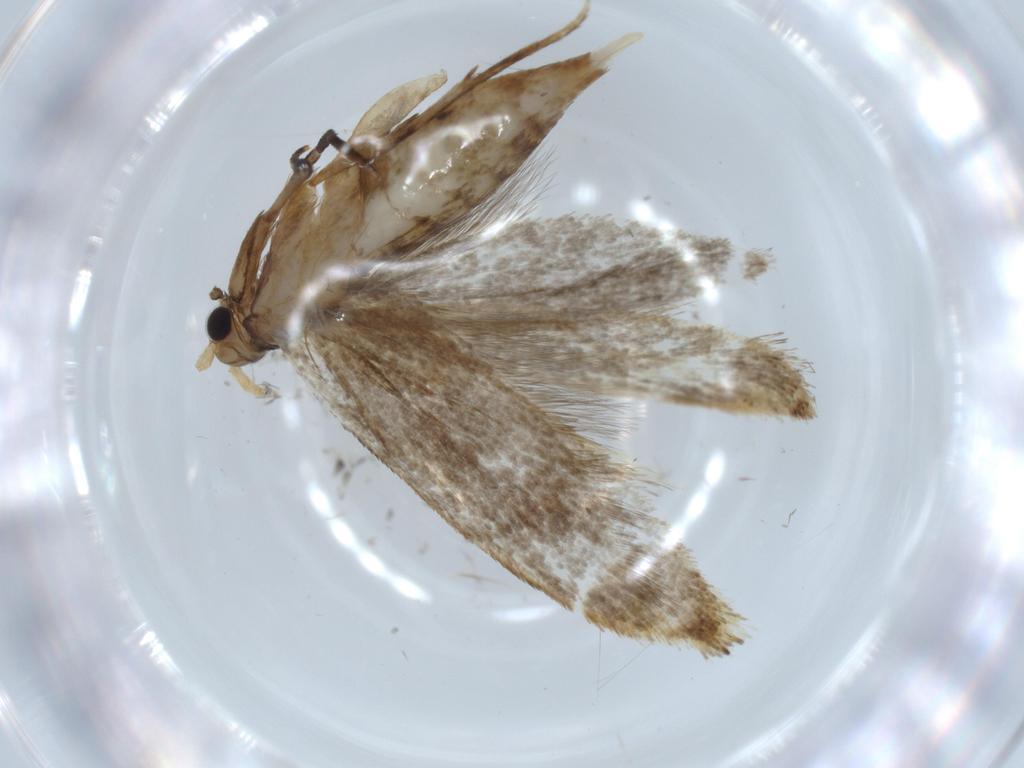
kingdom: Animalia
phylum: Arthropoda
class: Insecta
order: Lepidoptera
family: Tineidae
